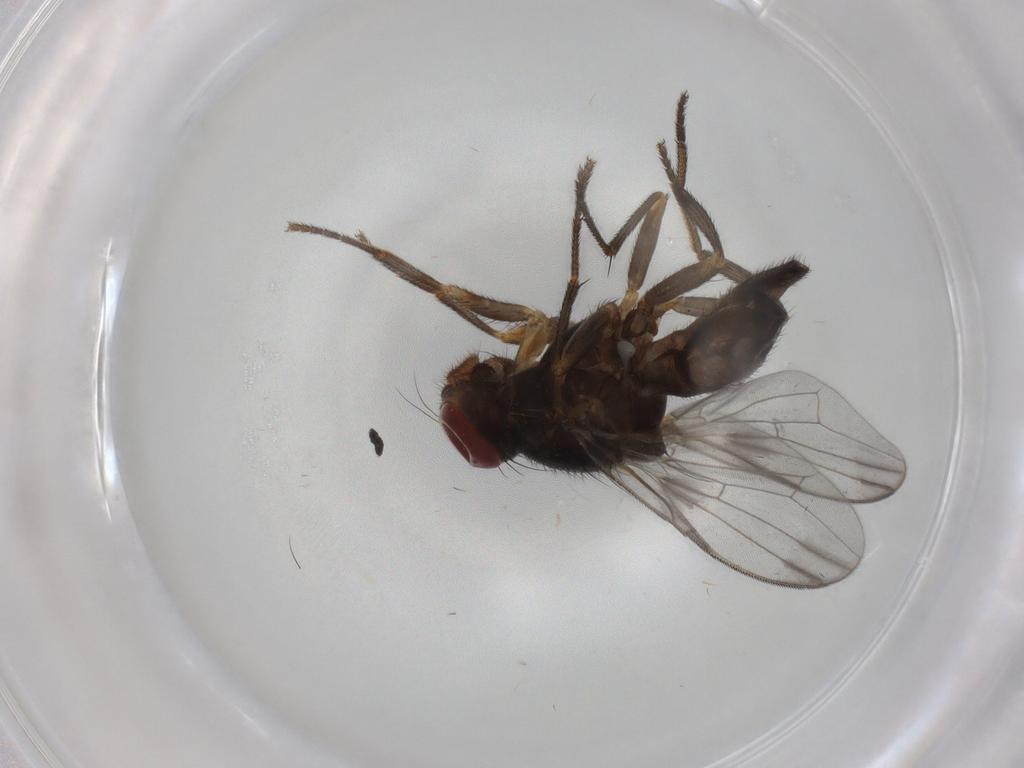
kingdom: Animalia
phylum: Arthropoda
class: Insecta
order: Diptera
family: Ulidiidae
